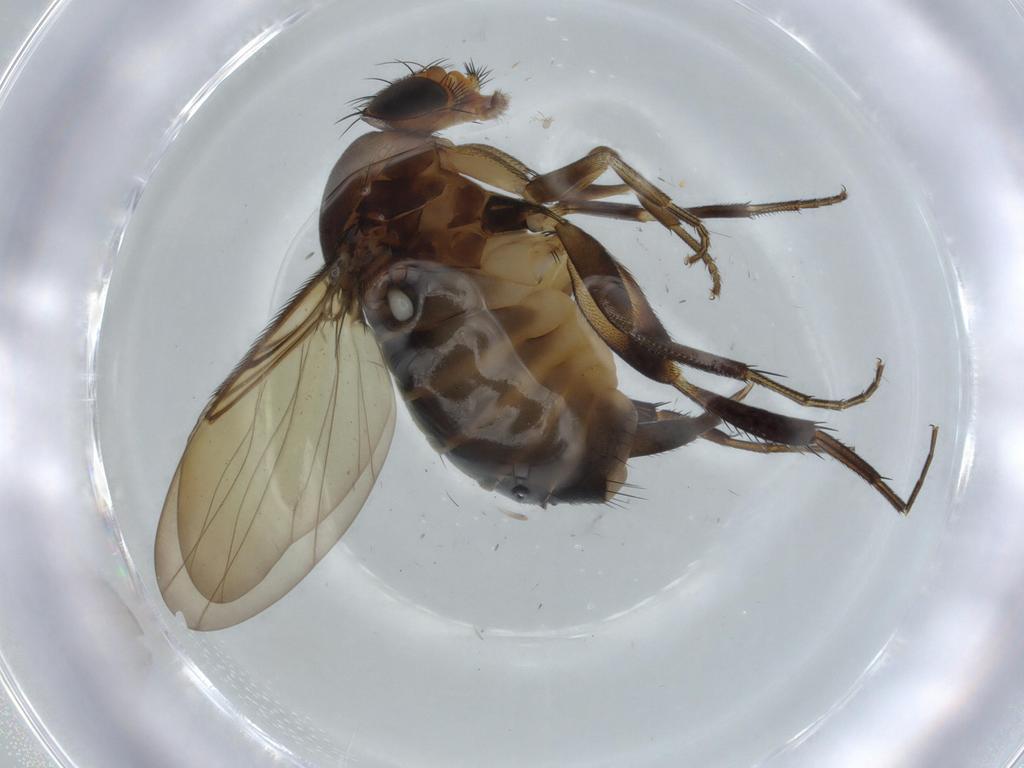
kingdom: Animalia
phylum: Arthropoda
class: Insecta
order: Diptera
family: Phoridae
